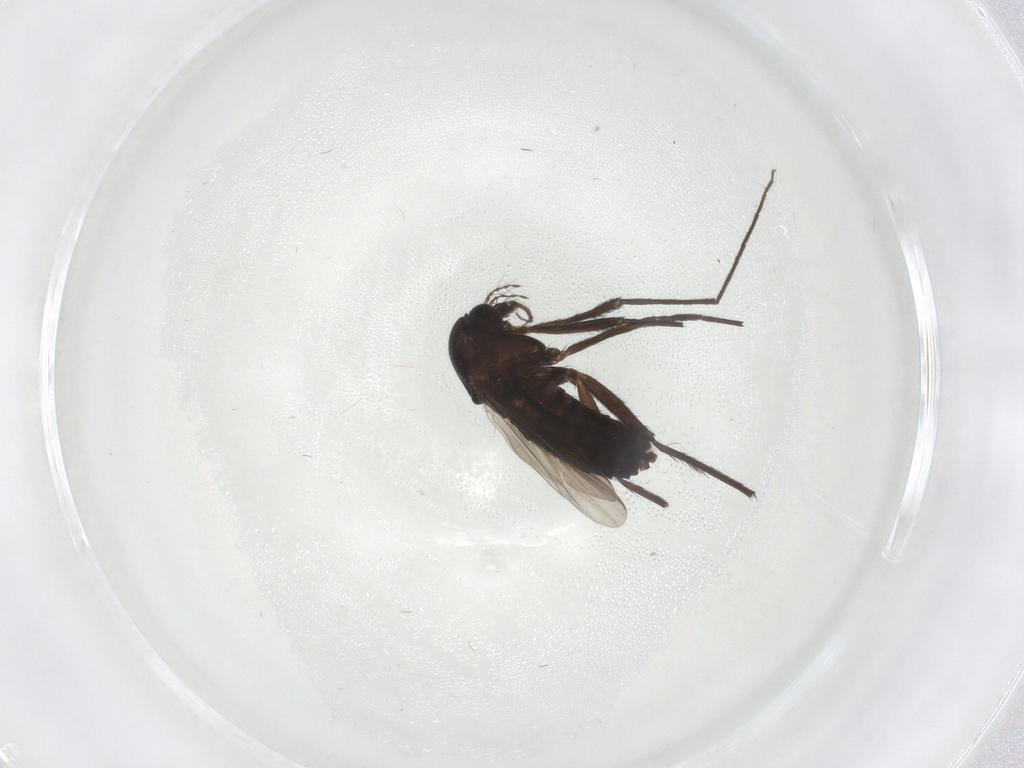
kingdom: Animalia
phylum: Arthropoda
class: Insecta
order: Diptera
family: Chironomidae
